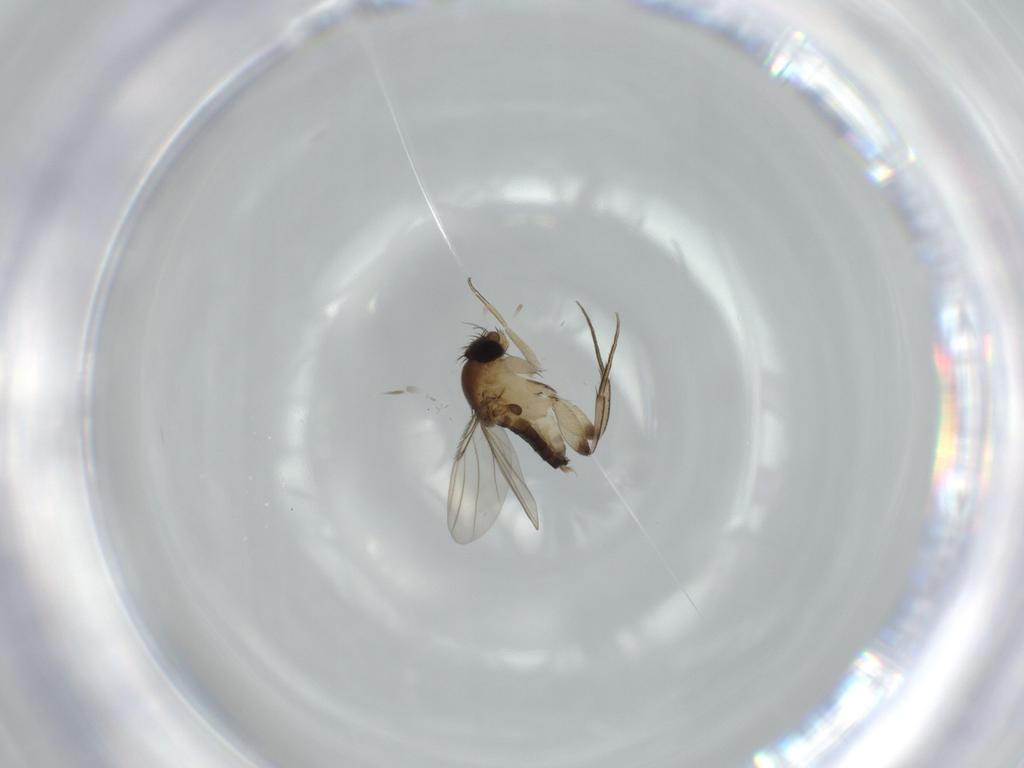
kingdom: Animalia
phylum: Arthropoda
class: Insecta
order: Diptera
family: Phoridae
